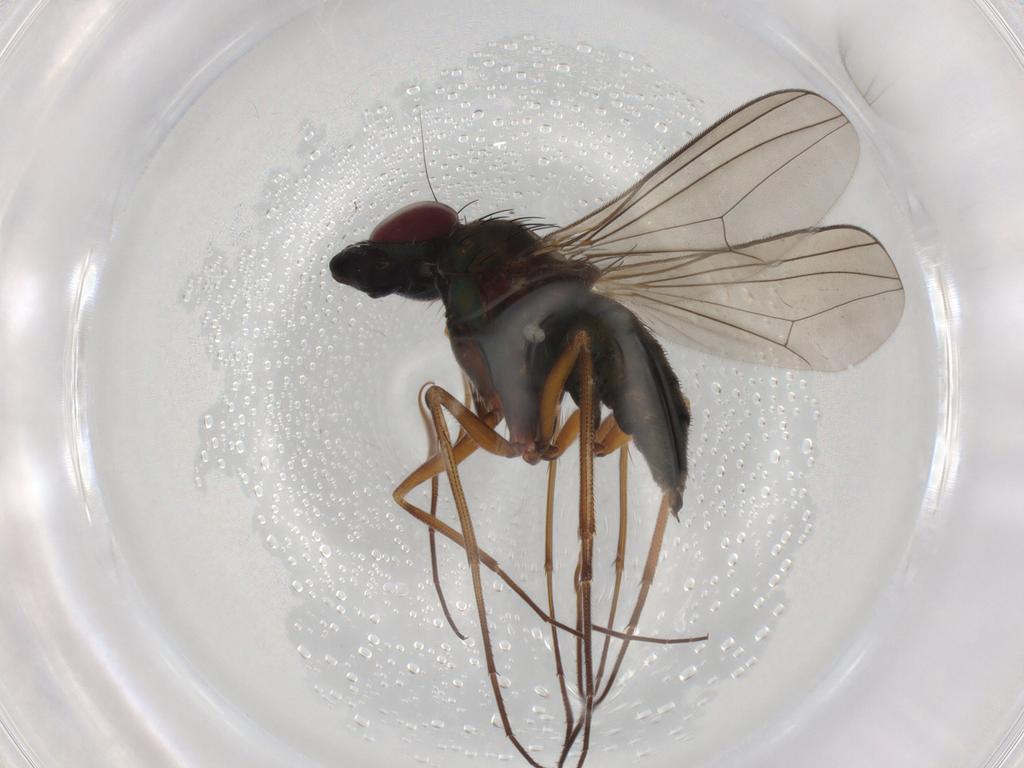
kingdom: Animalia
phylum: Arthropoda
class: Insecta
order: Diptera
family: Dolichopodidae
